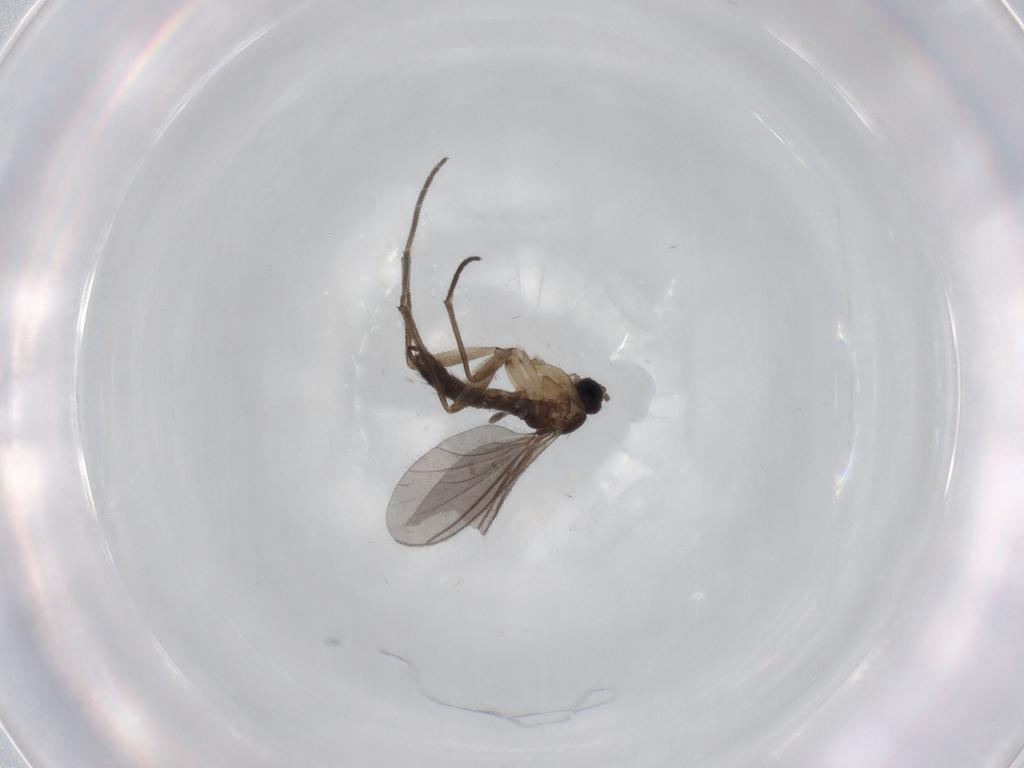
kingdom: Animalia
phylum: Arthropoda
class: Insecta
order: Diptera
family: Sciaridae
